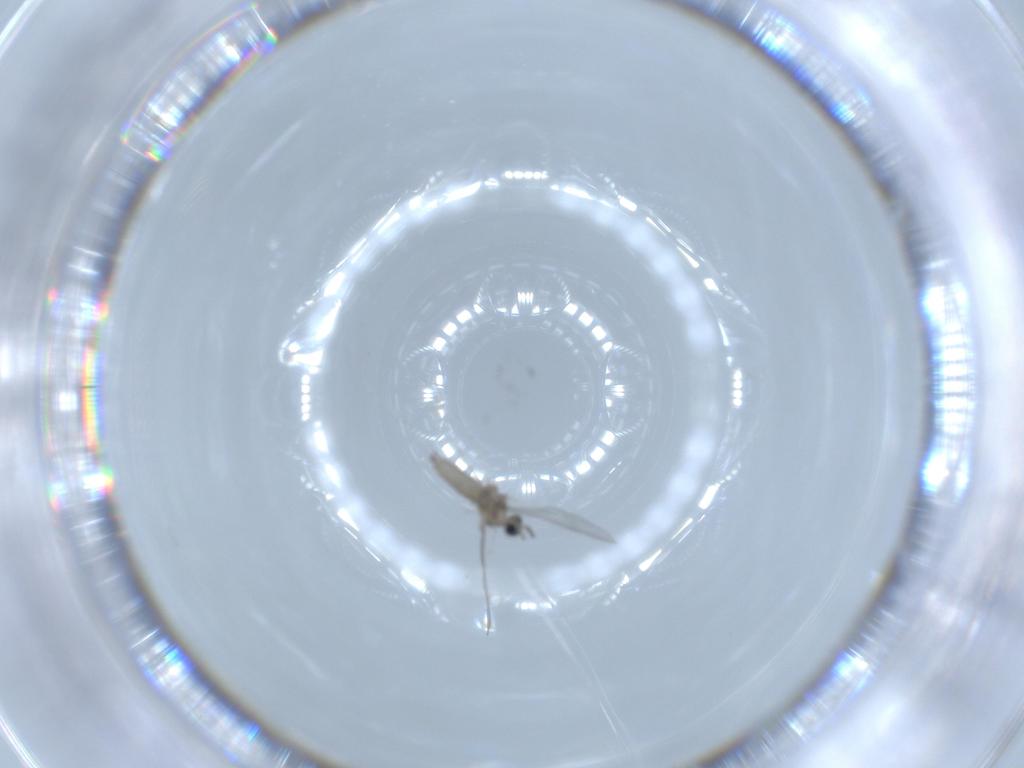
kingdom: Animalia
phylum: Arthropoda
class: Insecta
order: Diptera
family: Cecidomyiidae
